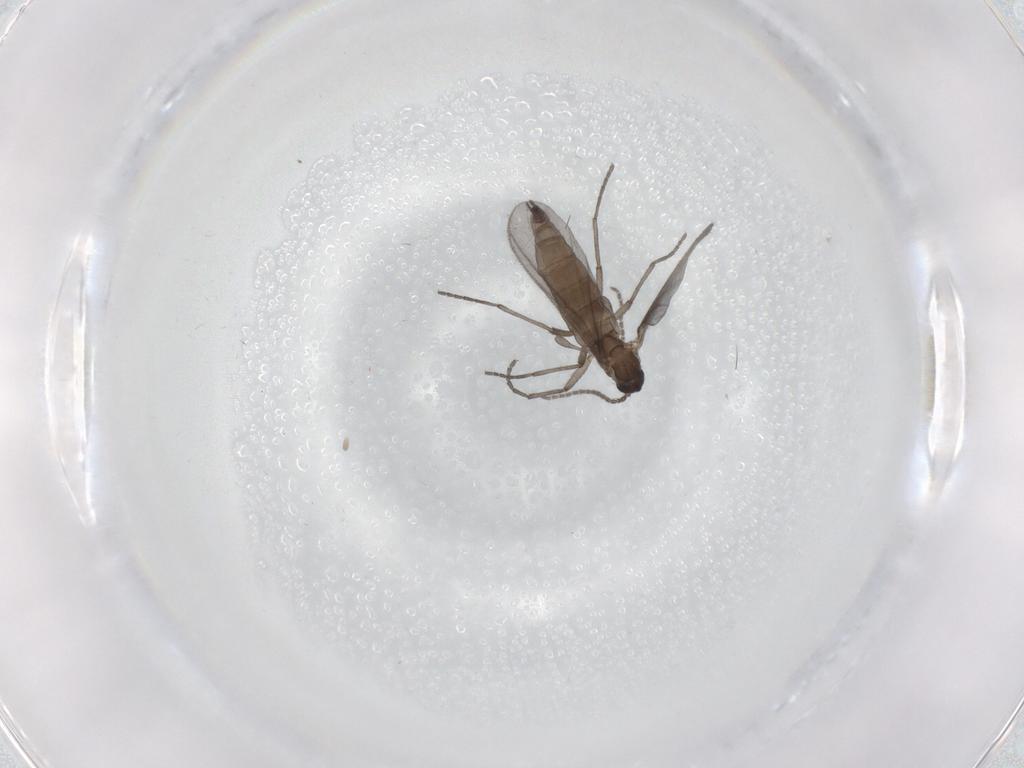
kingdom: Animalia
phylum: Arthropoda
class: Insecta
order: Diptera
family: Sciaridae
